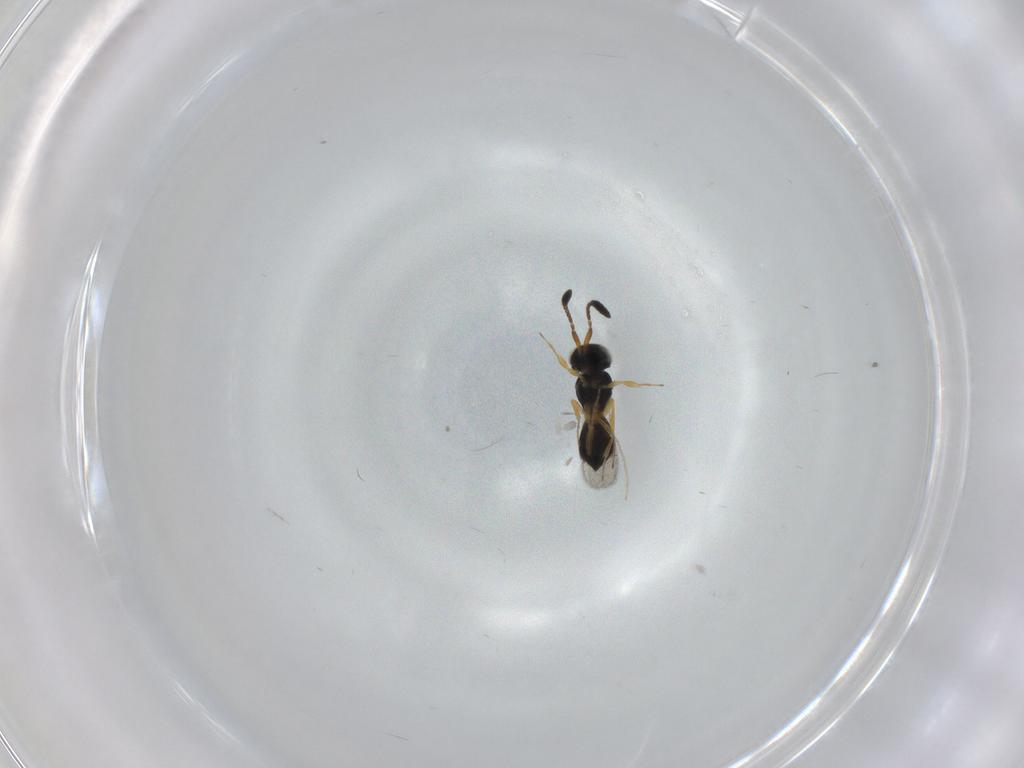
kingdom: Animalia
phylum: Arthropoda
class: Insecta
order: Hymenoptera
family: Scelionidae
